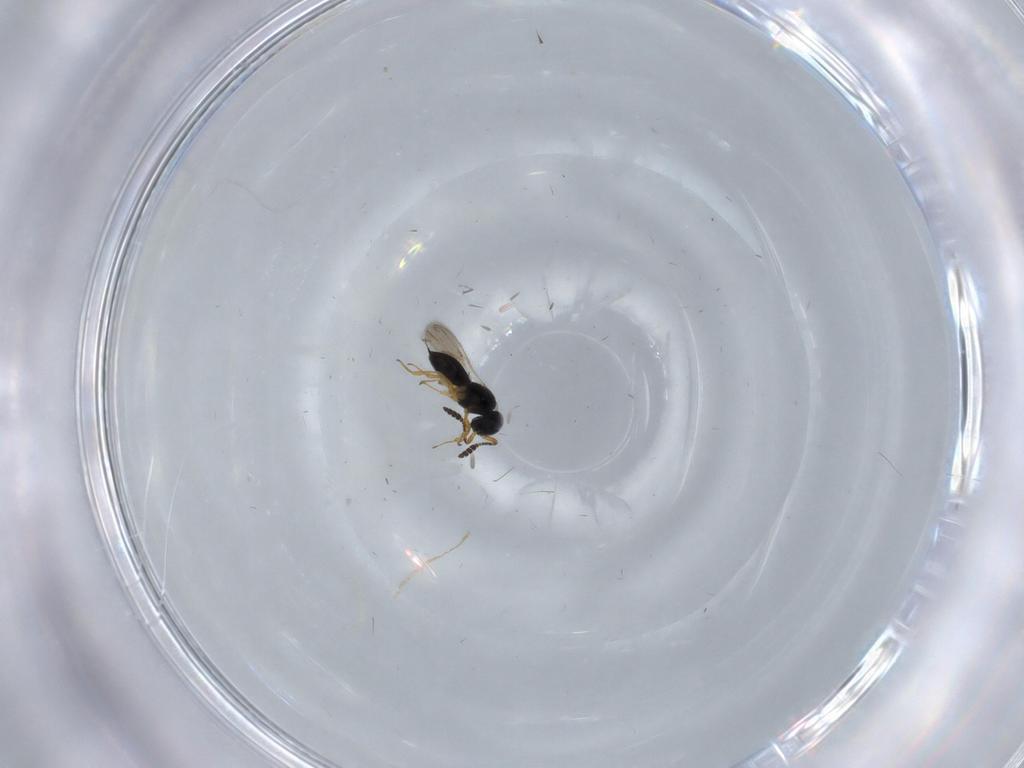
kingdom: Animalia
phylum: Arthropoda
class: Insecta
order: Hymenoptera
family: Scelionidae
